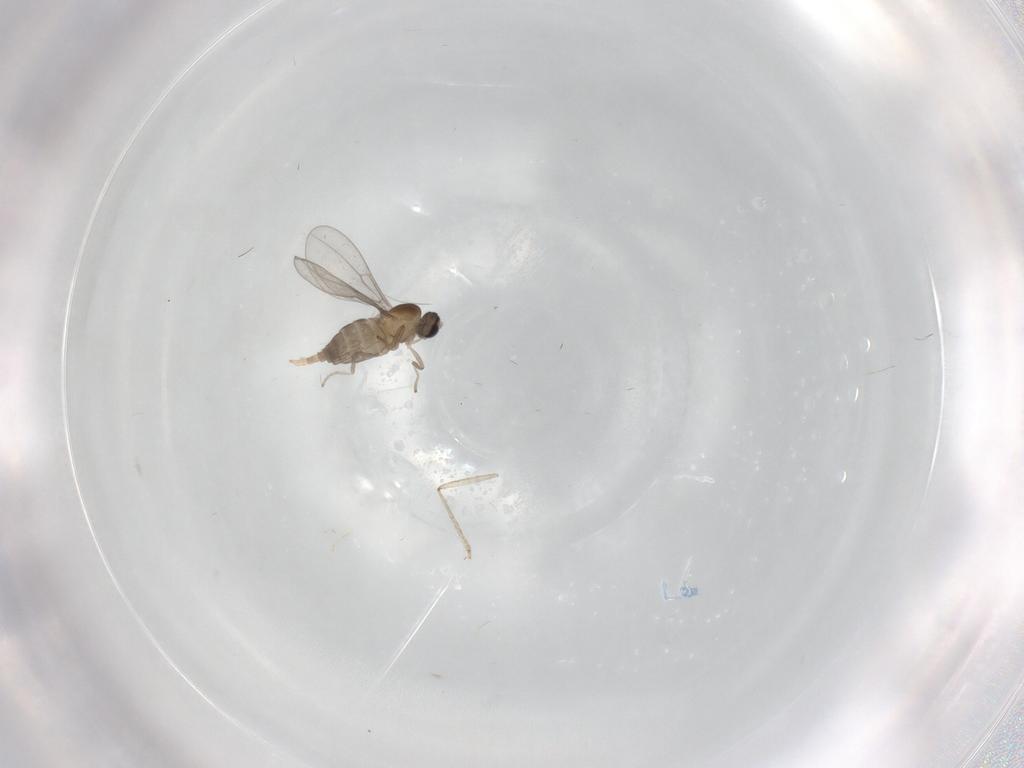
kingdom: Animalia
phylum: Arthropoda
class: Insecta
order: Diptera
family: Cecidomyiidae
